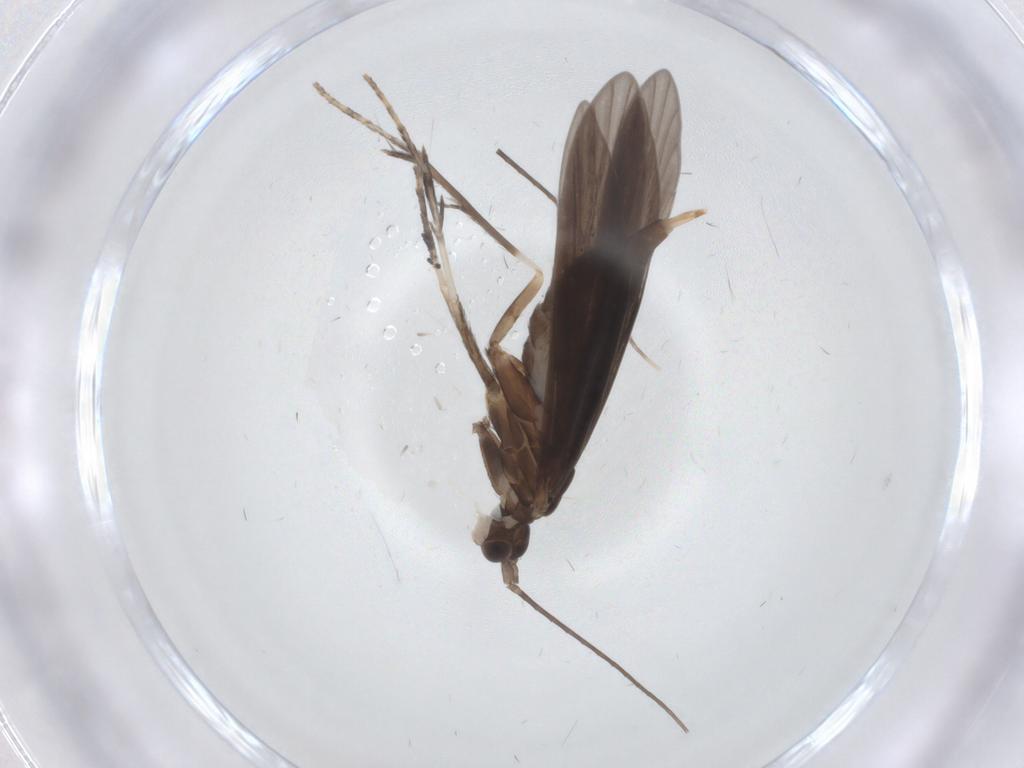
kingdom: Animalia
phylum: Arthropoda
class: Insecta
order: Trichoptera
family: Xiphocentronidae
